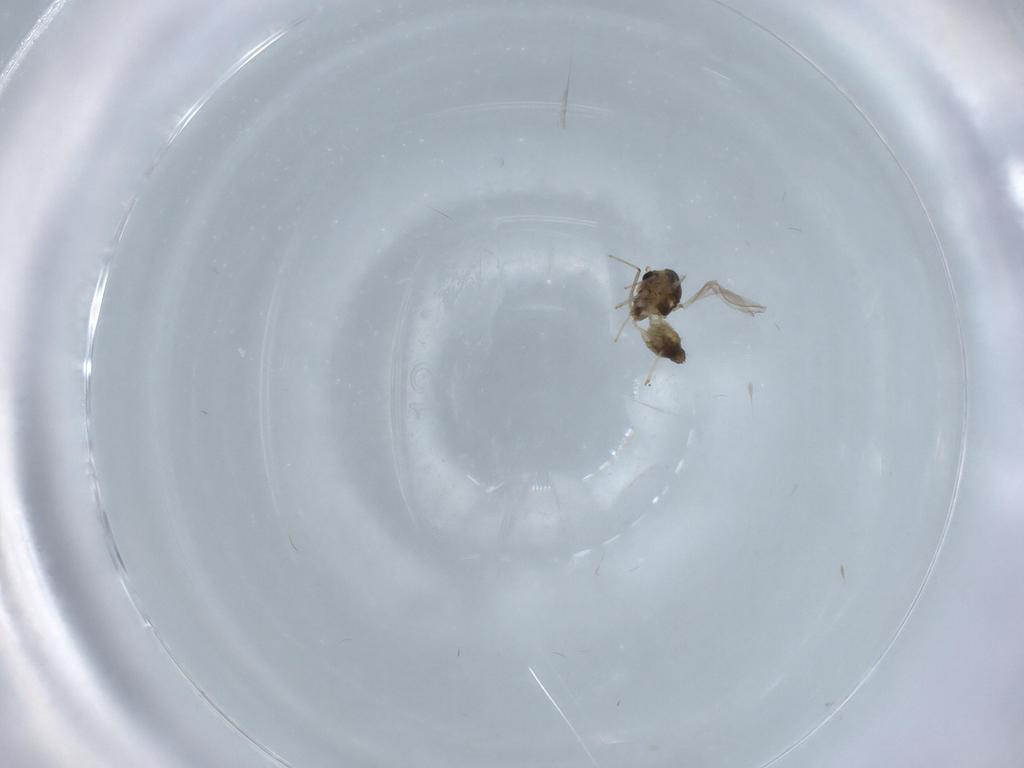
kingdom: Animalia
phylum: Arthropoda
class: Insecta
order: Diptera
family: Chironomidae
